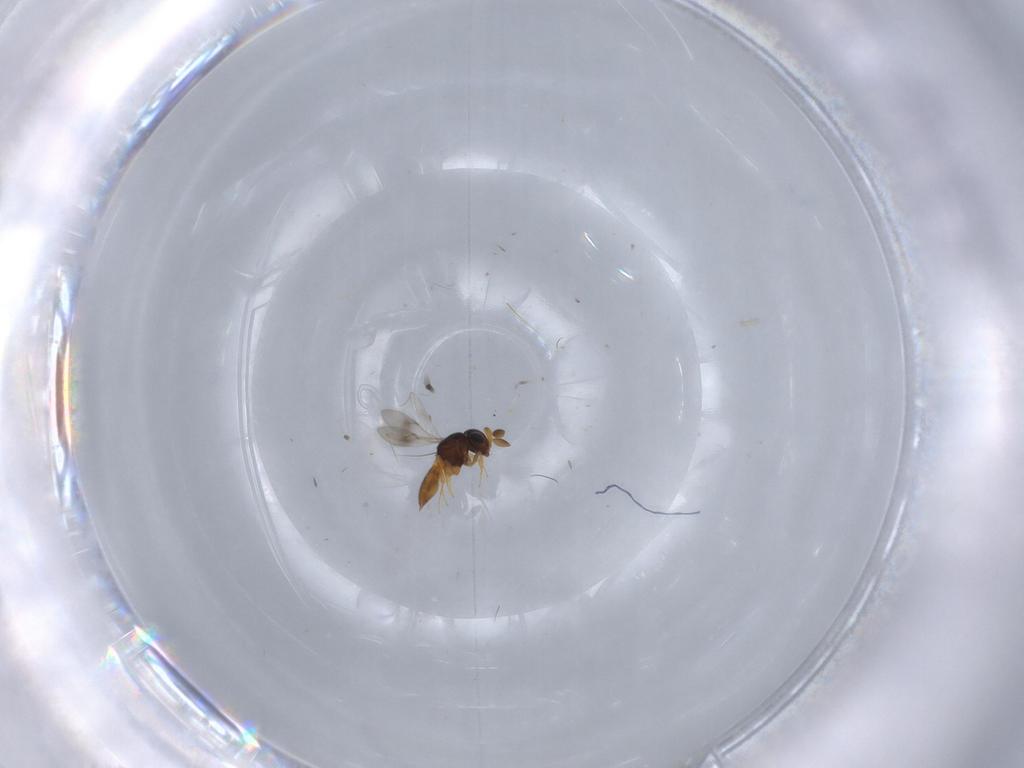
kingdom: Animalia
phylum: Arthropoda
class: Insecta
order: Hymenoptera
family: Scelionidae
